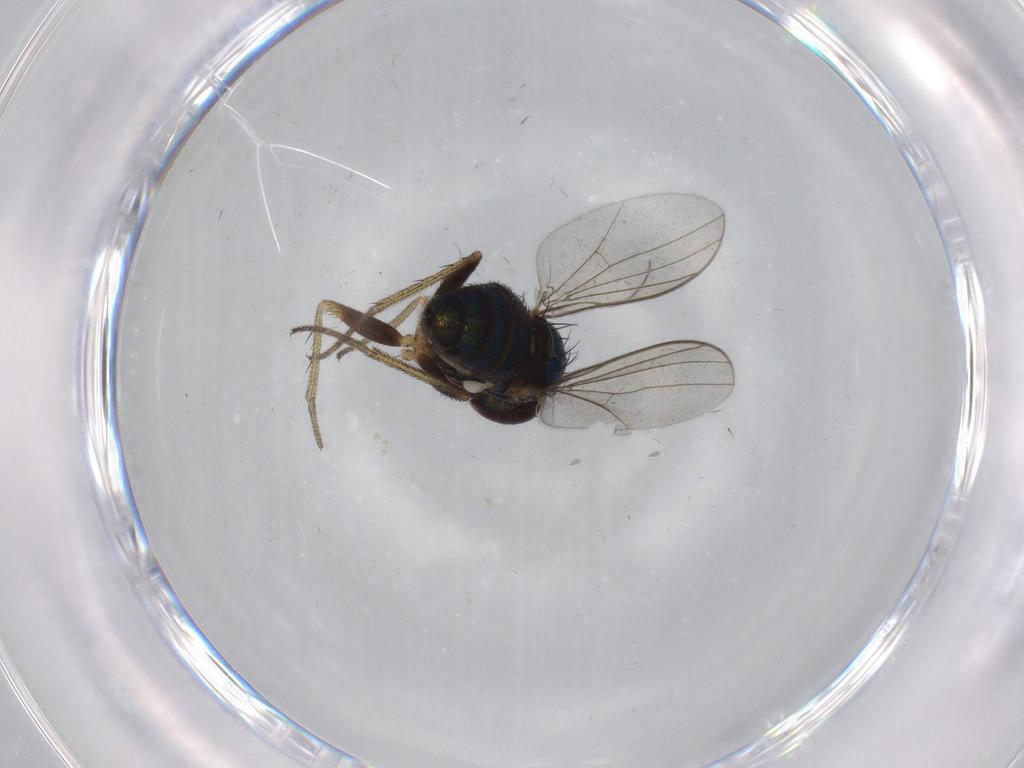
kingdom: Animalia
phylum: Arthropoda
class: Insecta
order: Diptera
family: Ceratopogonidae
